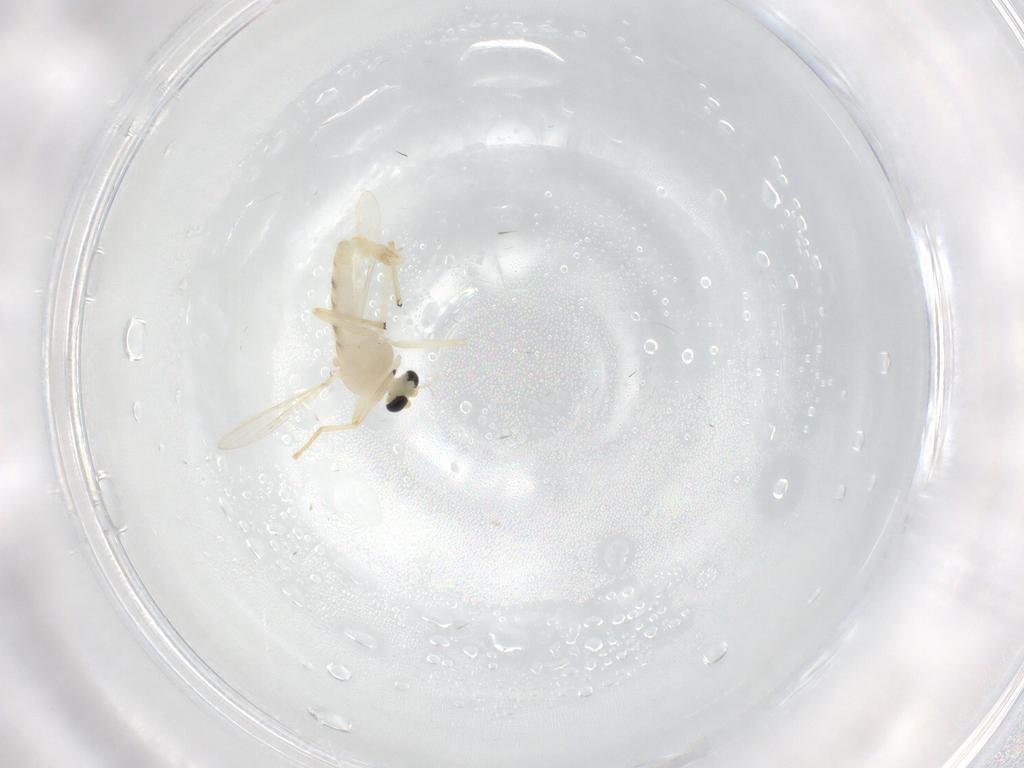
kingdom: Animalia
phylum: Arthropoda
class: Insecta
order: Diptera
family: Chironomidae
